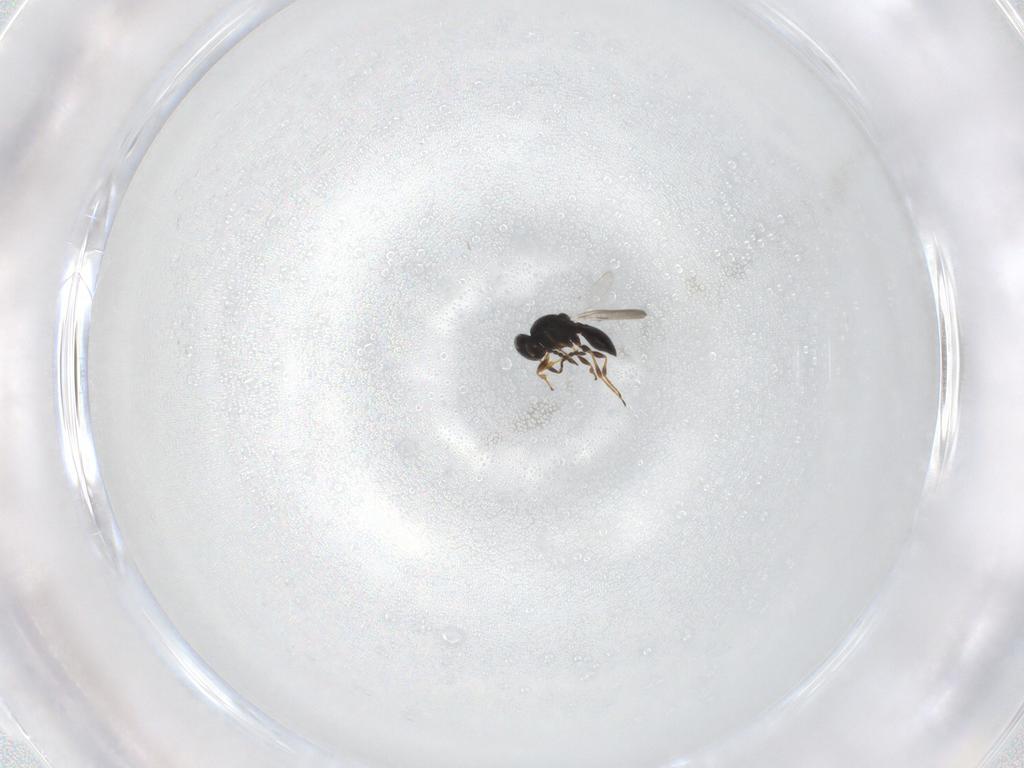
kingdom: Animalia
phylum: Arthropoda
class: Insecta
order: Hymenoptera
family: Platygastridae
